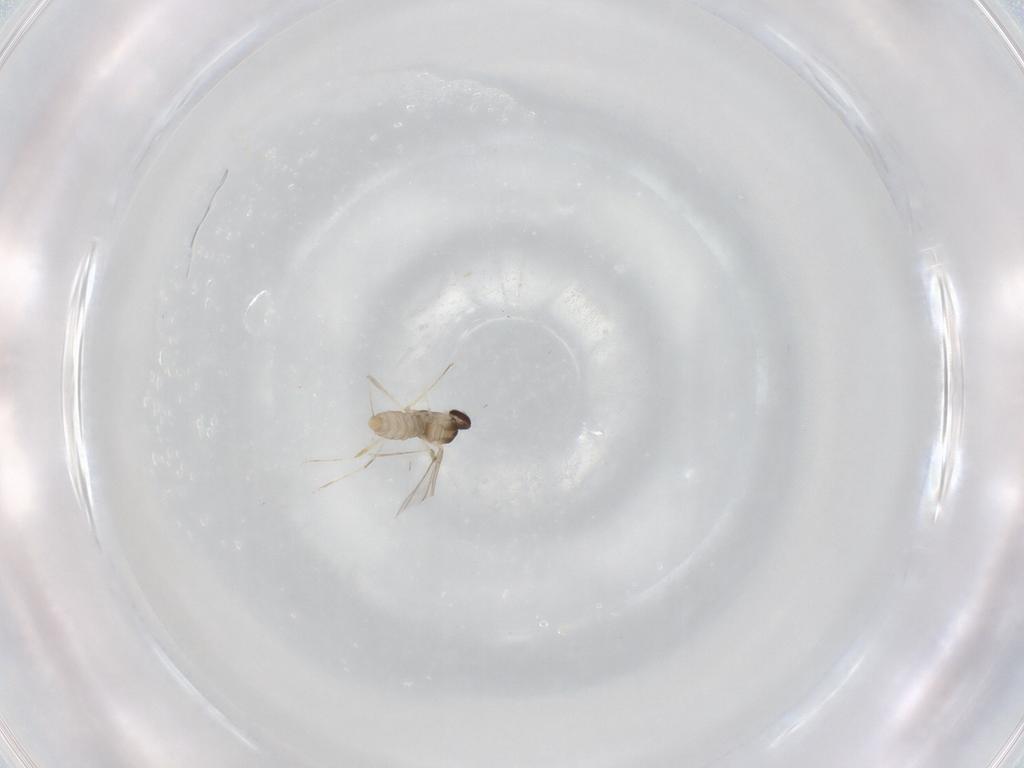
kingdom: Animalia
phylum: Arthropoda
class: Insecta
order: Diptera
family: Cecidomyiidae
